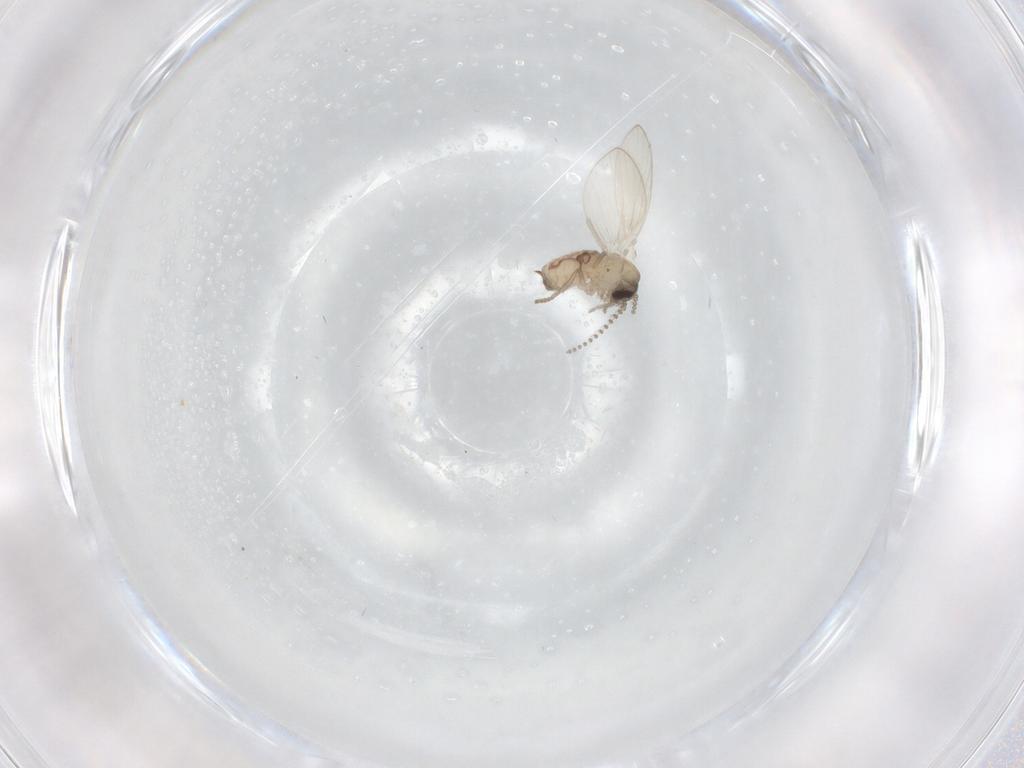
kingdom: Animalia
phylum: Arthropoda
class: Insecta
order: Diptera
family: Psychodidae
